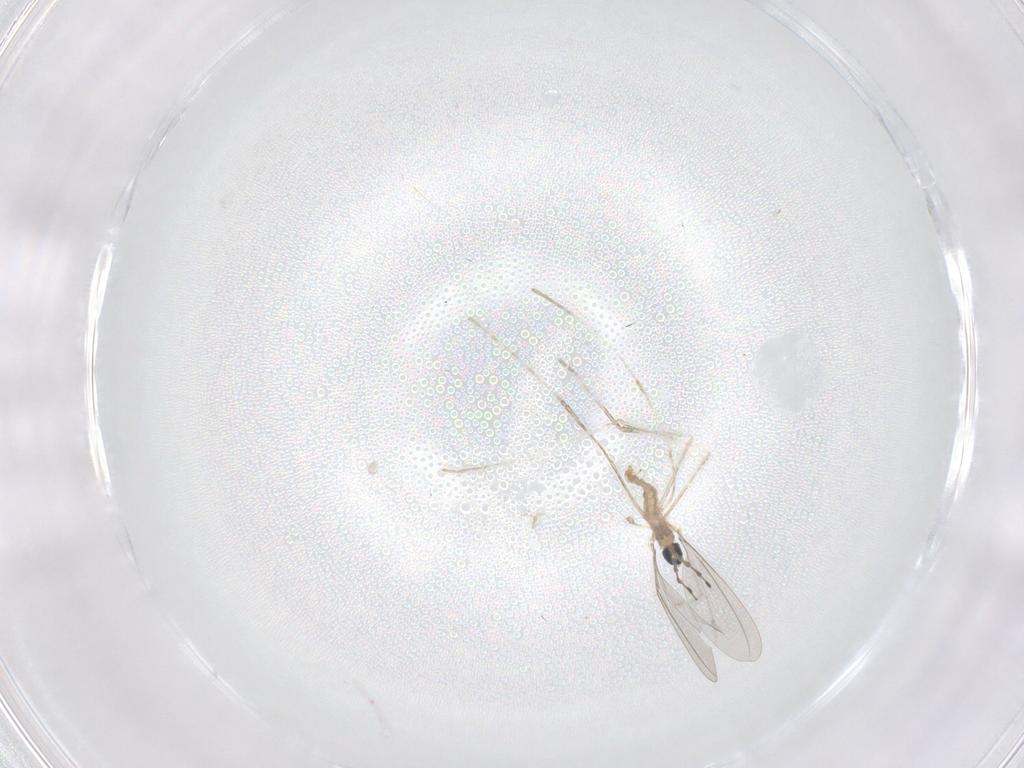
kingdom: Animalia
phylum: Arthropoda
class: Insecta
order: Diptera
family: Cecidomyiidae
